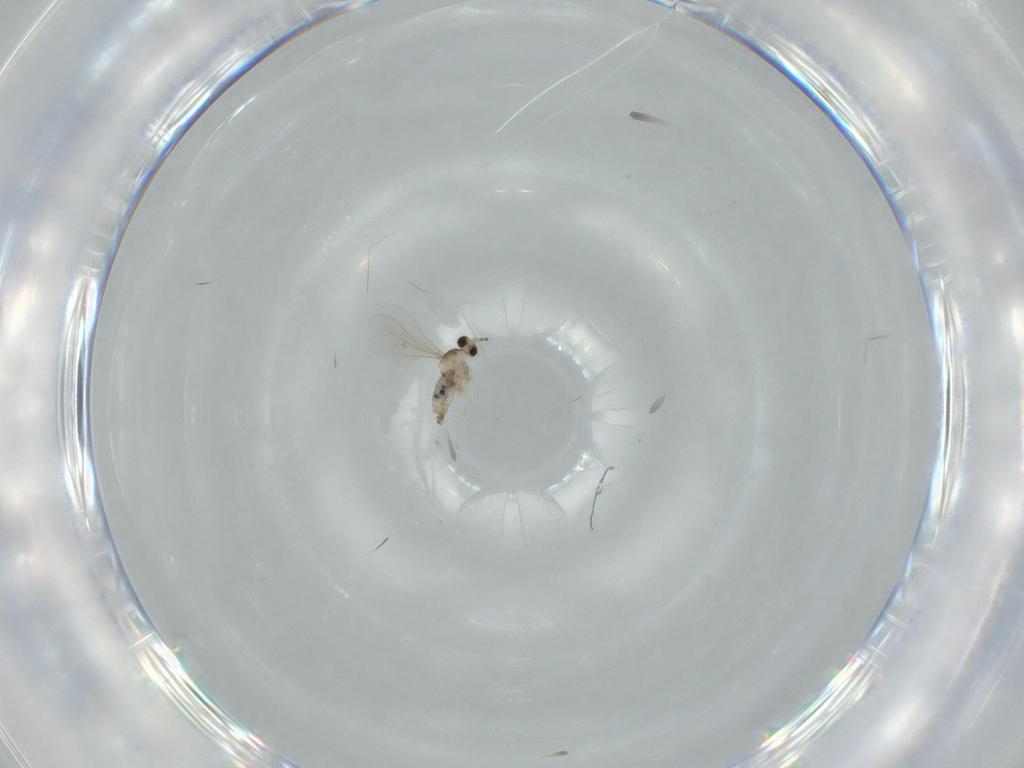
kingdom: Animalia
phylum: Arthropoda
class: Insecta
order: Diptera
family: Cecidomyiidae
